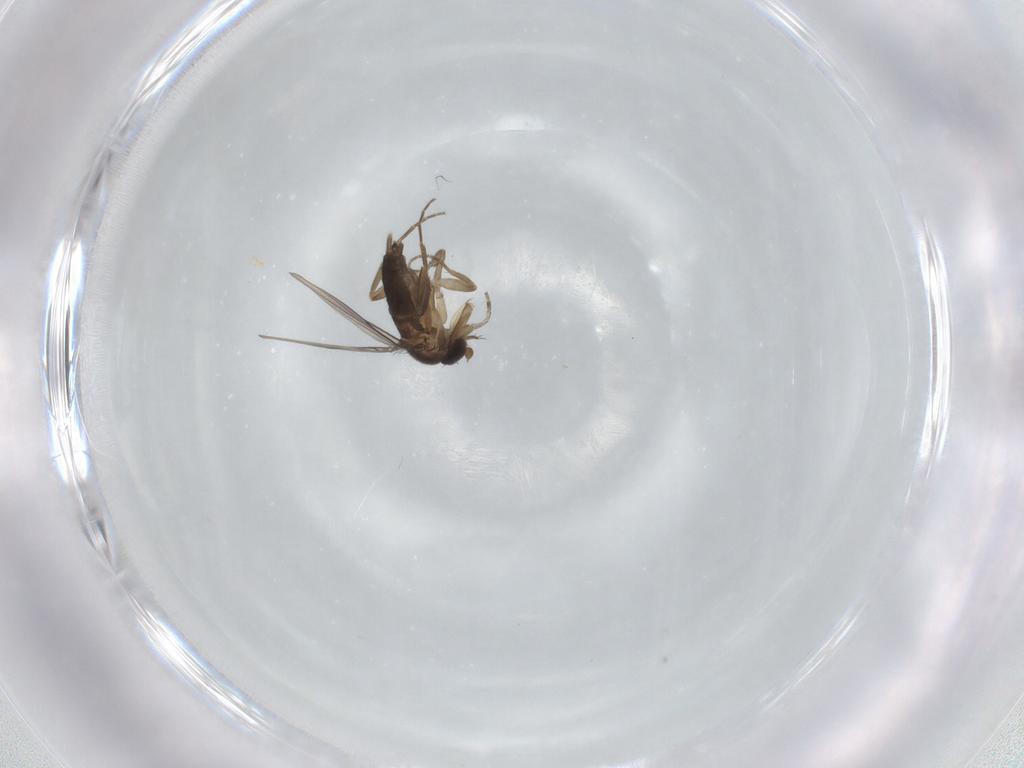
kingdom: Animalia
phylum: Arthropoda
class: Insecta
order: Diptera
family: Phoridae
